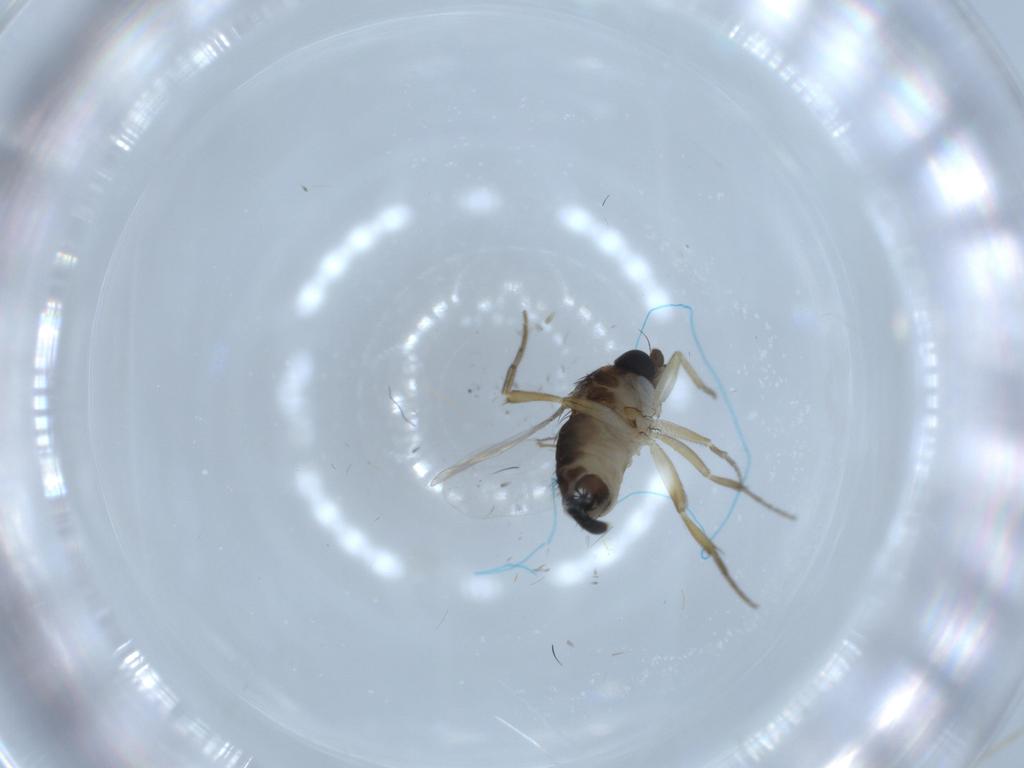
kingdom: Animalia
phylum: Arthropoda
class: Insecta
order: Diptera
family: Phoridae
